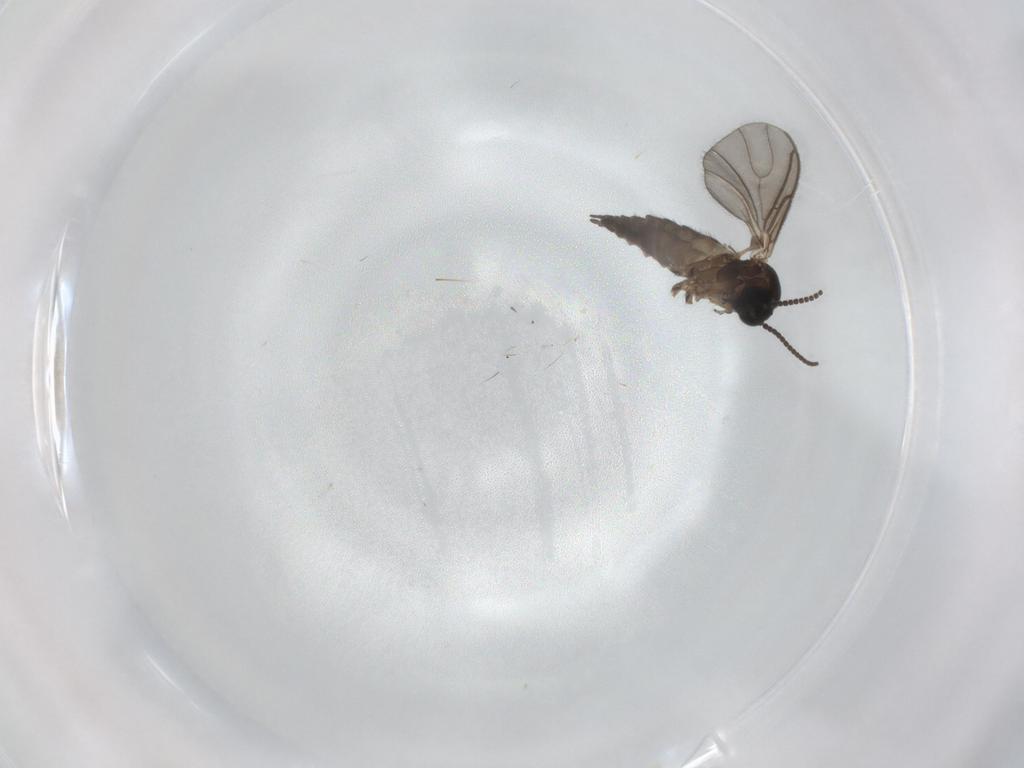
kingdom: Animalia
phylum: Arthropoda
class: Insecta
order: Diptera
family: Sciaridae
